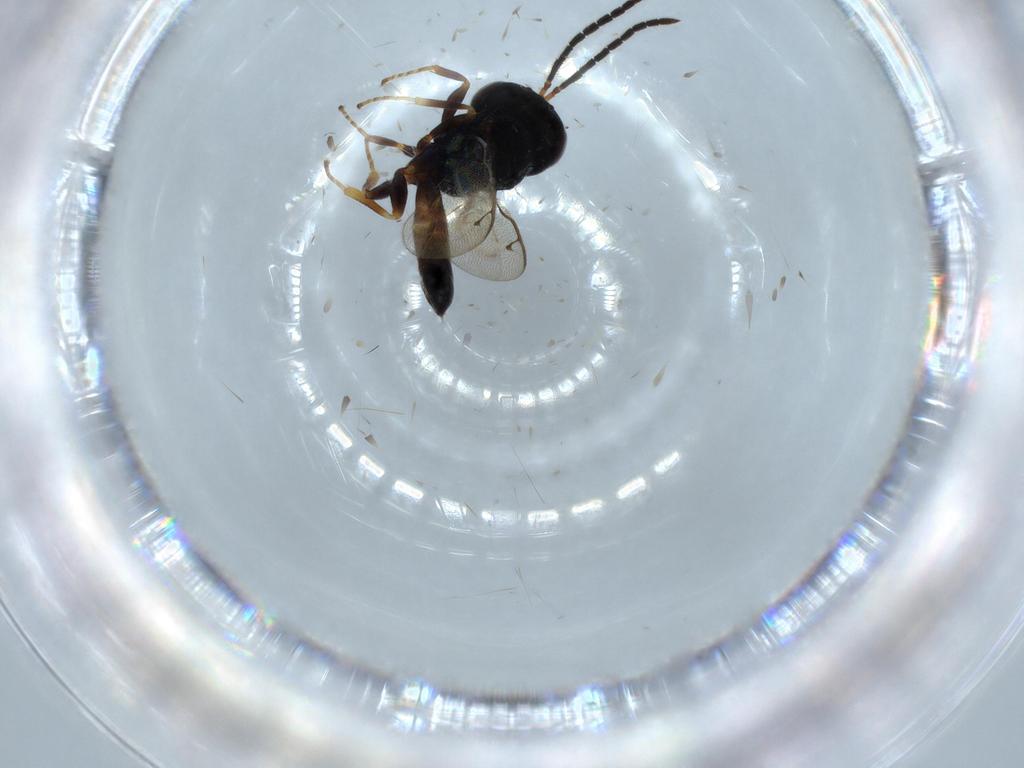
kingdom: Animalia
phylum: Arthropoda
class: Insecta
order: Hymenoptera
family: Pteromalidae
